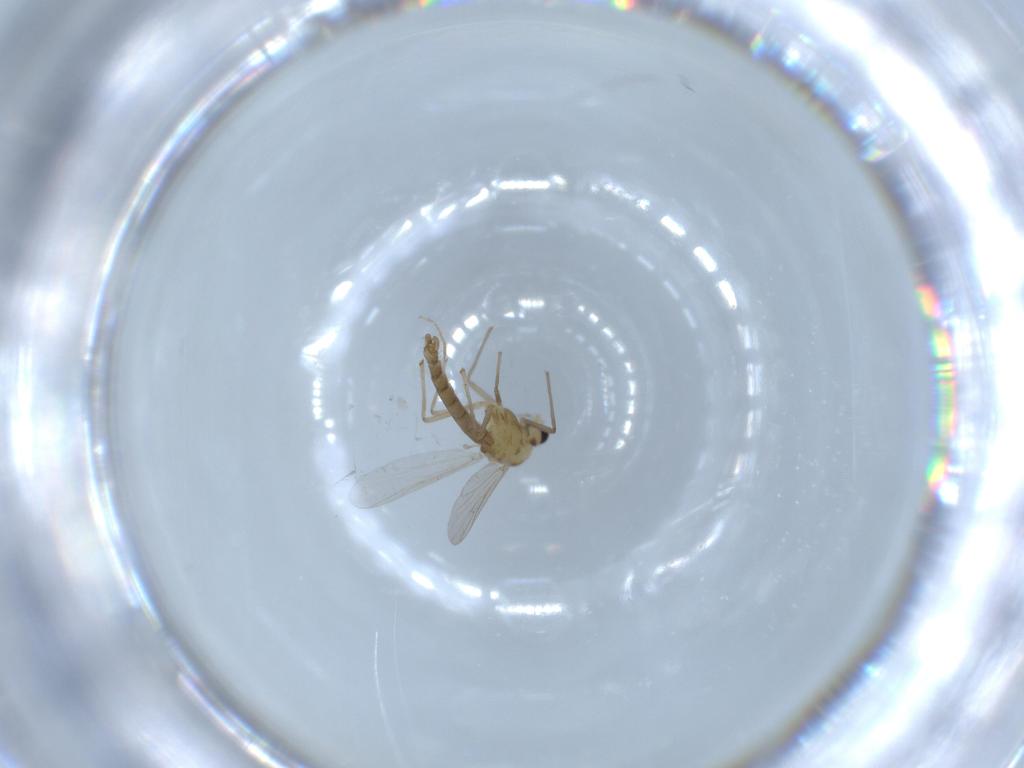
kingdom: Animalia
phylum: Arthropoda
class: Insecta
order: Diptera
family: Chironomidae
